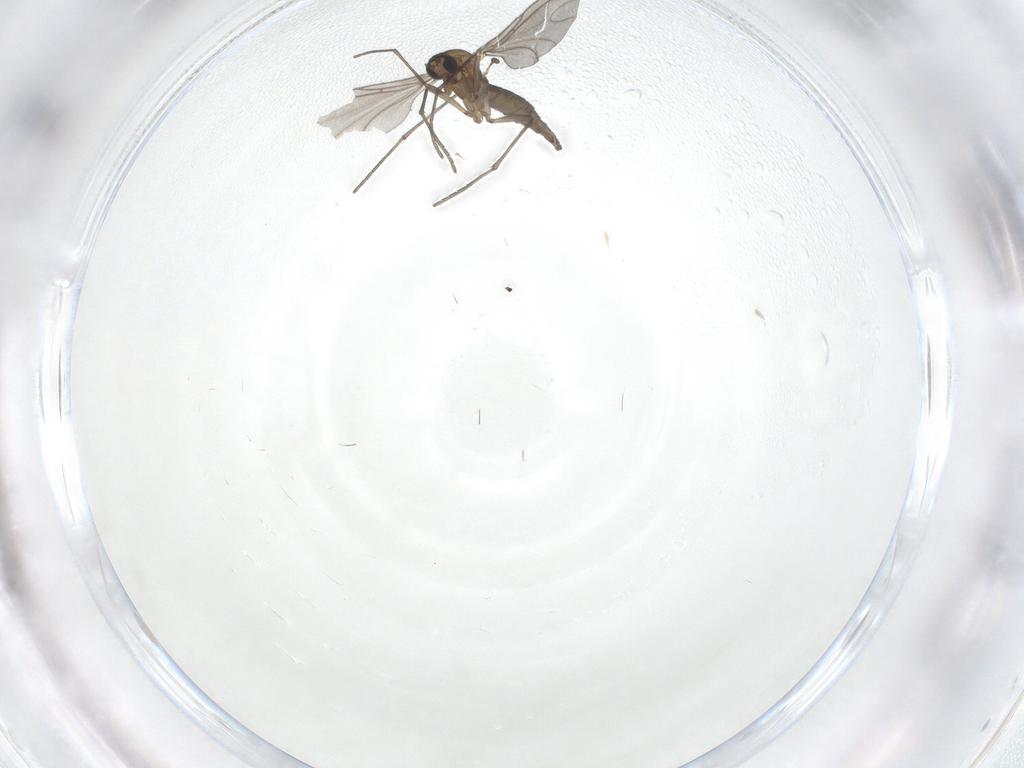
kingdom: Animalia
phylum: Arthropoda
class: Insecta
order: Diptera
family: Sciaridae
